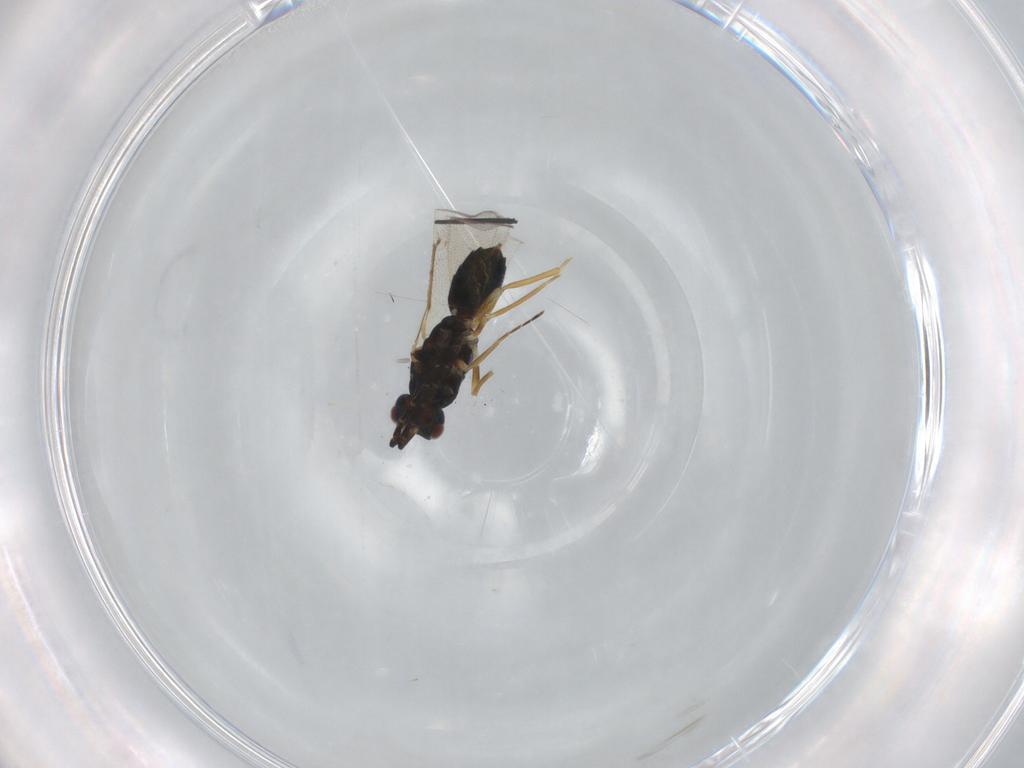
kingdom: Animalia
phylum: Arthropoda
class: Insecta
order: Hymenoptera
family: Eulophidae
